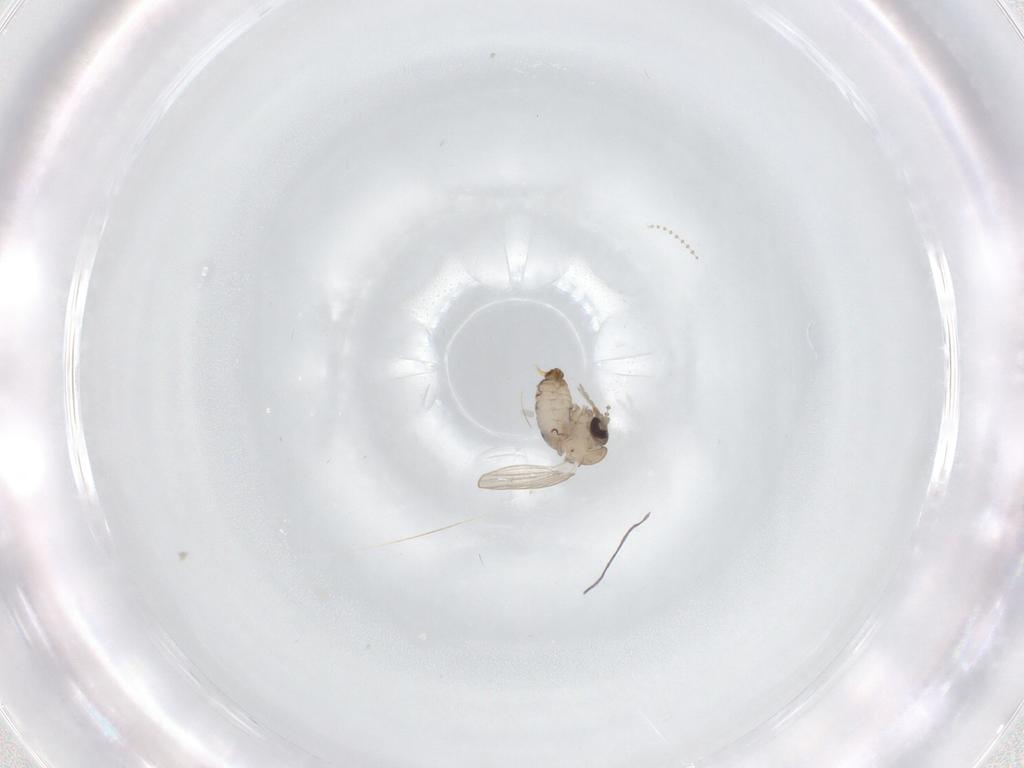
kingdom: Animalia
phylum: Arthropoda
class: Insecta
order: Diptera
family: Psychodidae
